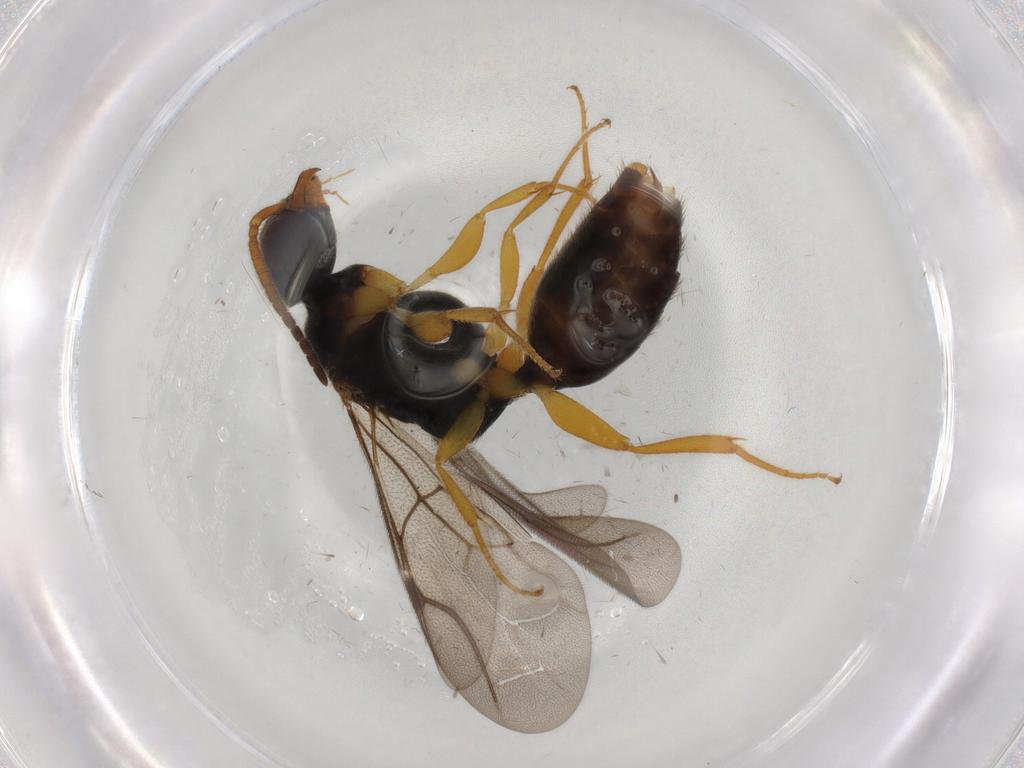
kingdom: Animalia
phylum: Arthropoda
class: Insecta
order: Hymenoptera
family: Bethylidae
